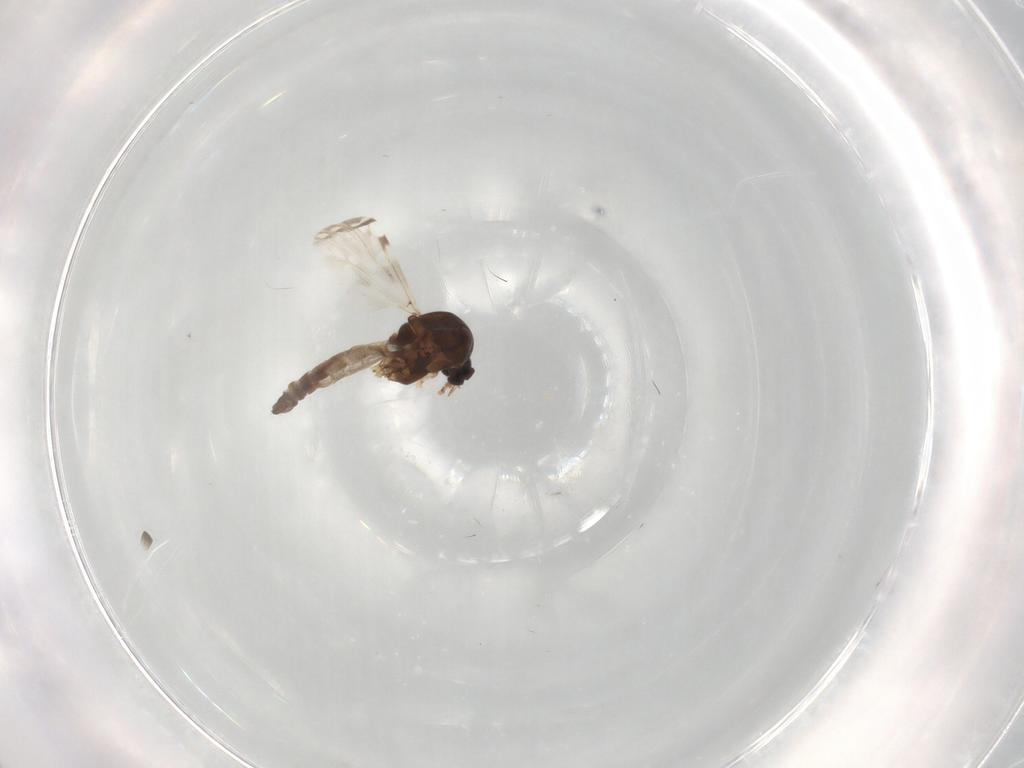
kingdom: Animalia
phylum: Arthropoda
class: Insecta
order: Diptera
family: Ceratopogonidae
